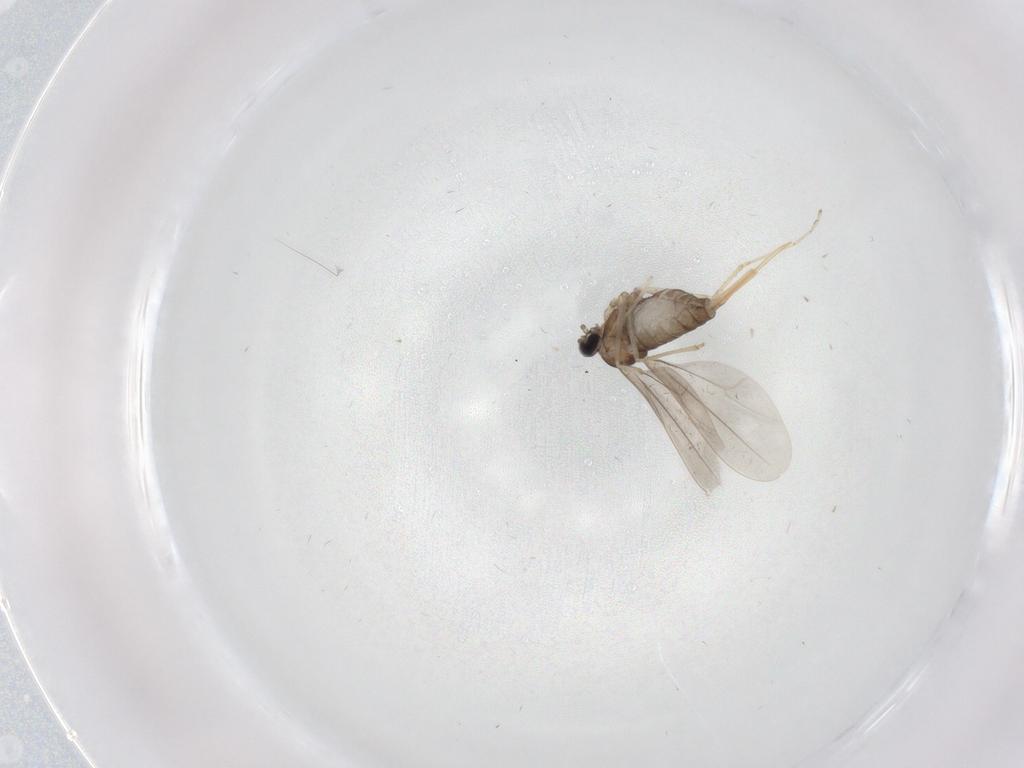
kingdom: Animalia
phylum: Arthropoda
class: Insecta
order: Diptera
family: Cecidomyiidae
